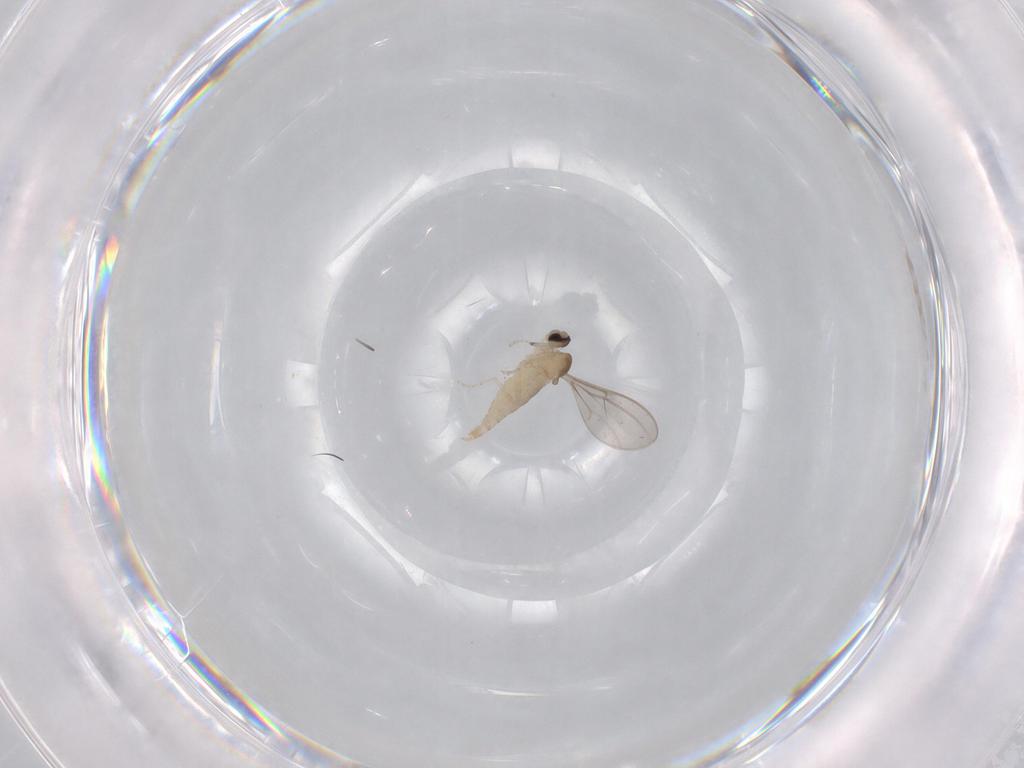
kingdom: Animalia
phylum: Arthropoda
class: Insecta
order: Diptera
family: Cecidomyiidae
